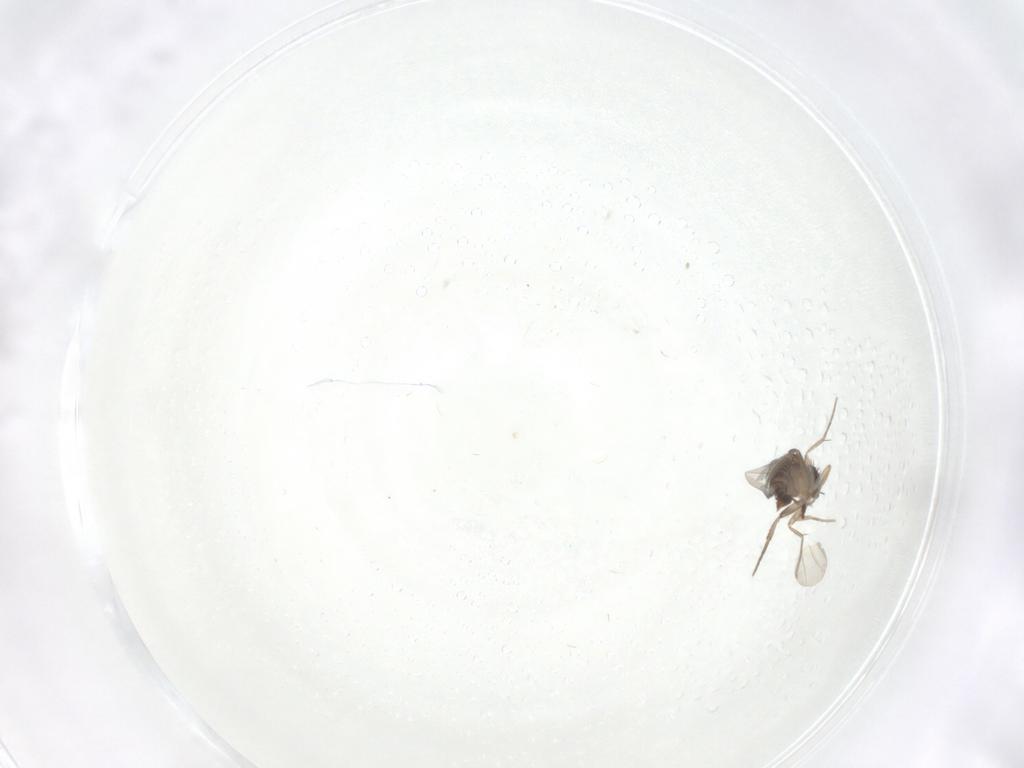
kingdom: Animalia
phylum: Arthropoda
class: Insecta
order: Diptera
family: Phoridae
